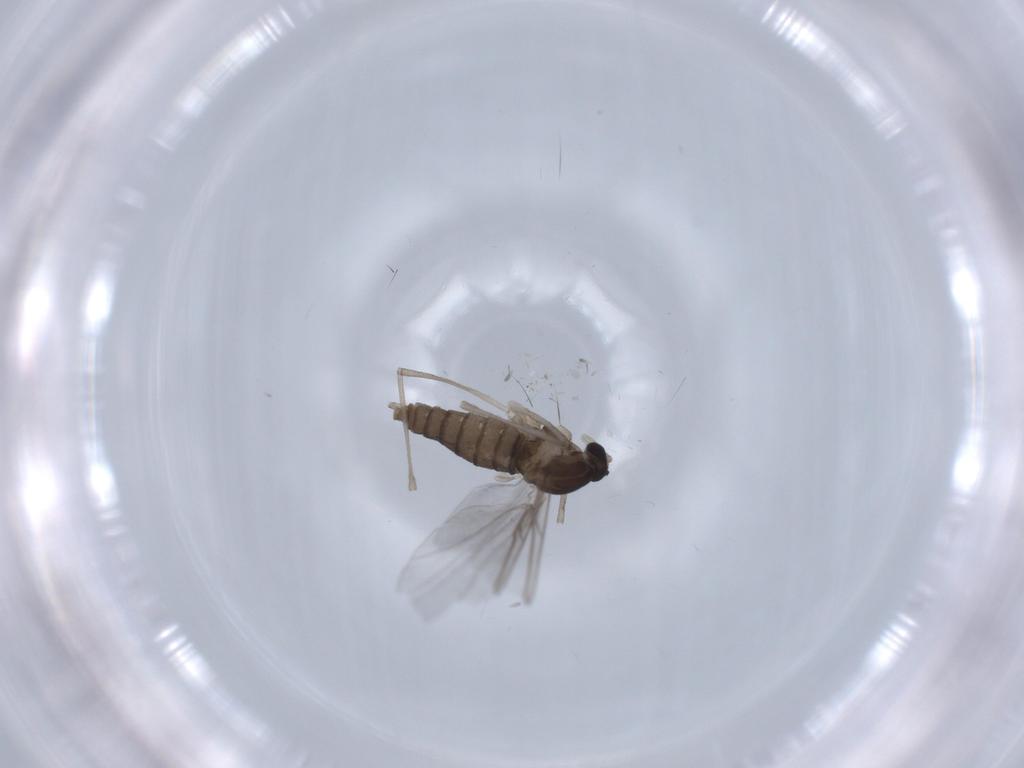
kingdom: Animalia
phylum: Arthropoda
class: Insecta
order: Diptera
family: Cecidomyiidae
